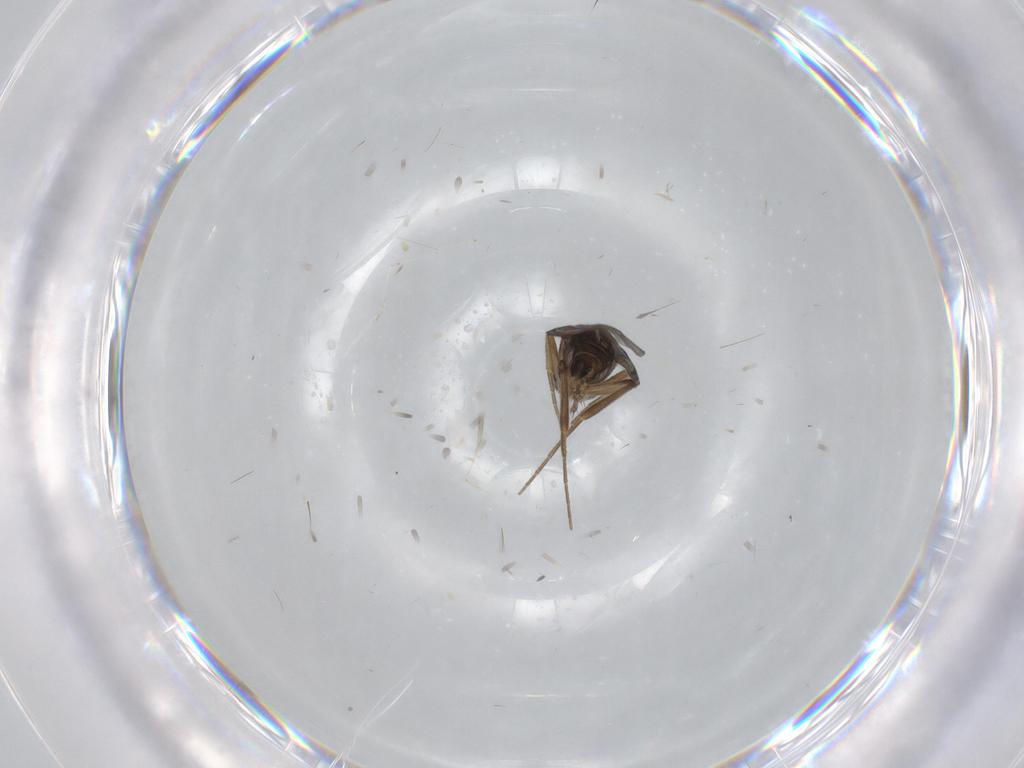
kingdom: Animalia
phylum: Arthropoda
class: Insecta
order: Diptera
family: Phoridae
